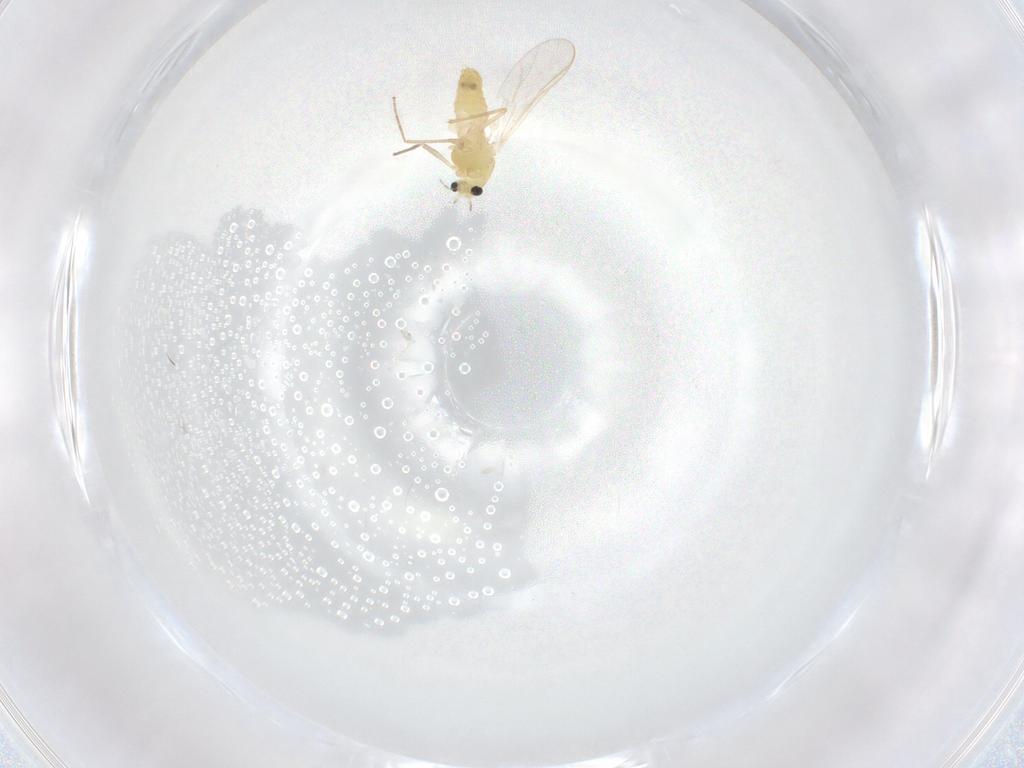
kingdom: Animalia
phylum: Arthropoda
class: Insecta
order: Diptera
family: Chironomidae
